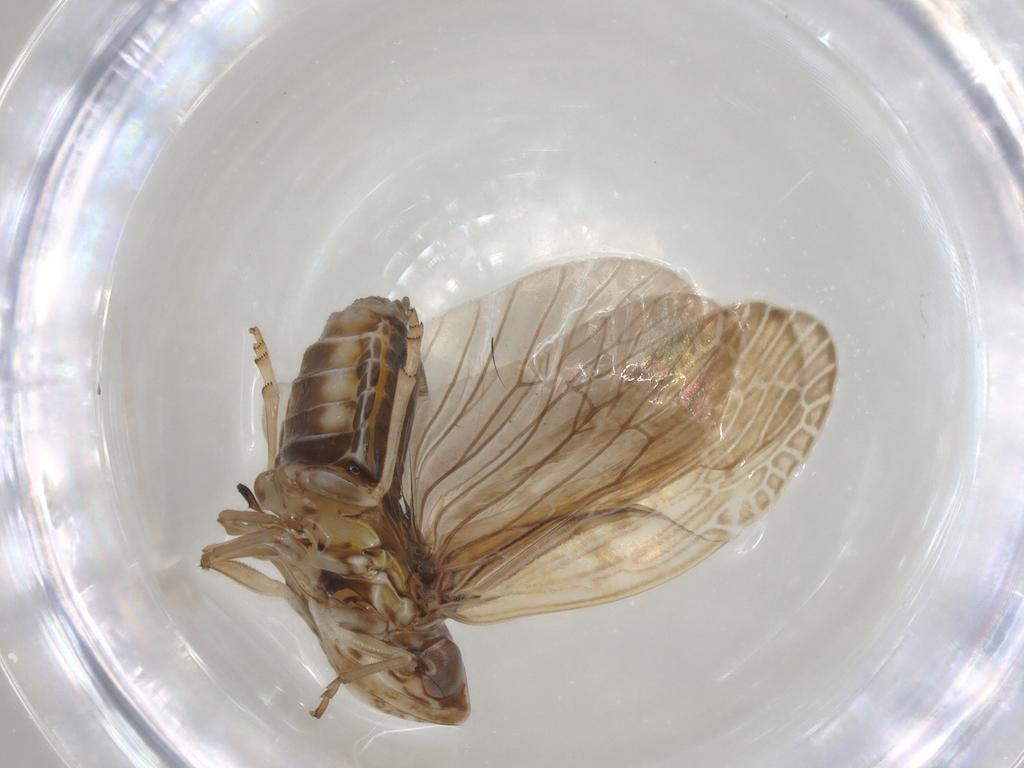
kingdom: Animalia
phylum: Arthropoda
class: Insecta
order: Hemiptera
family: Achilidae
